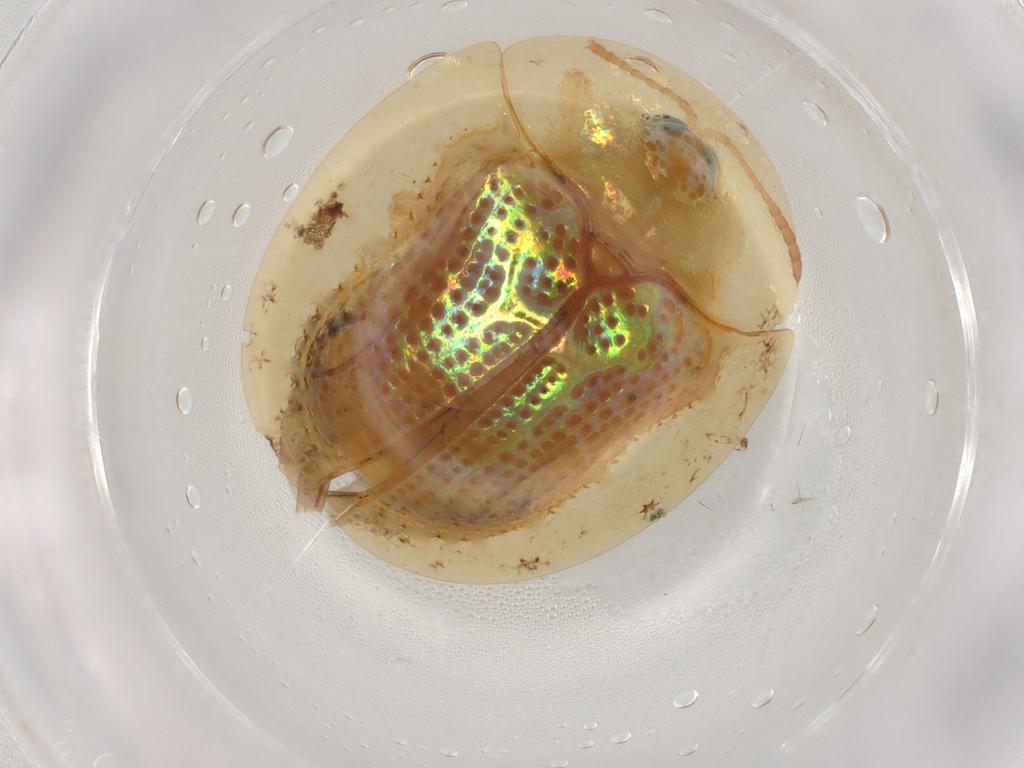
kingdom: Animalia
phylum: Arthropoda
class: Insecta
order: Coleoptera
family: Chrysomelidae
